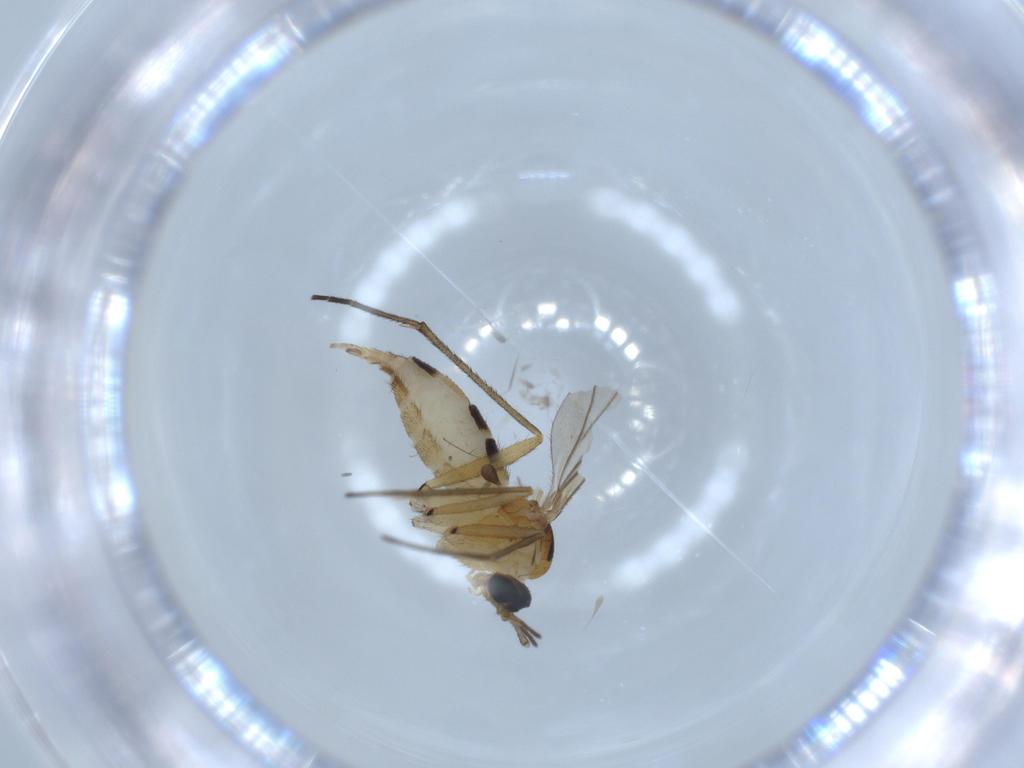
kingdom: Animalia
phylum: Arthropoda
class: Insecta
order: Diptera
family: Chironomidae
